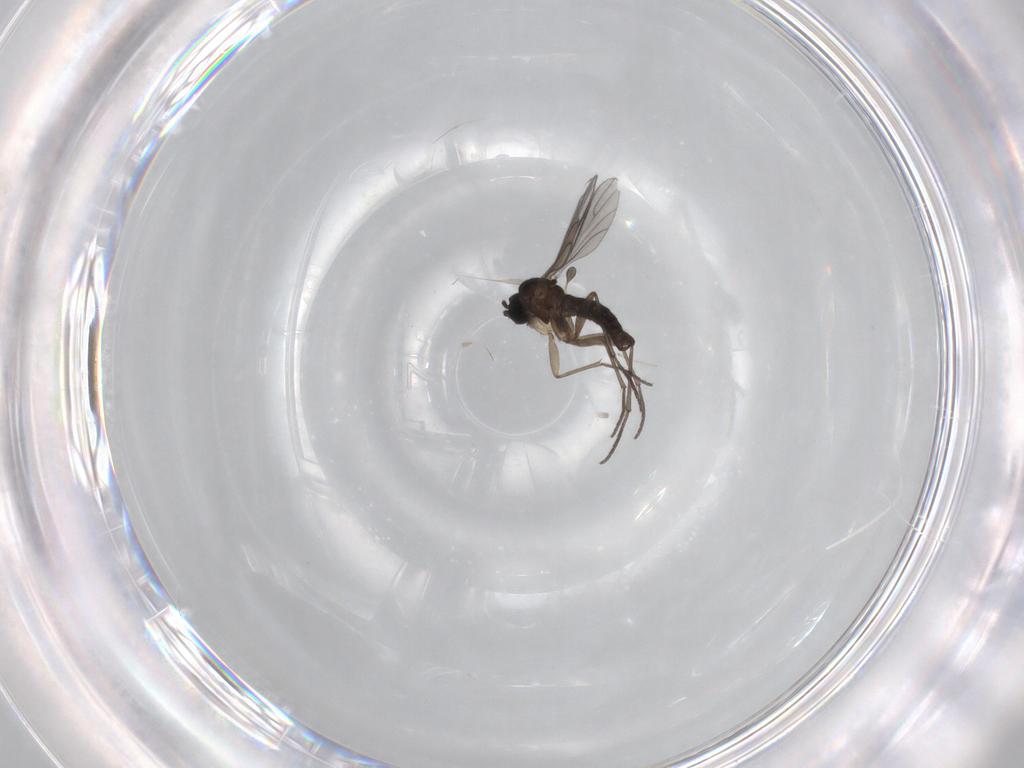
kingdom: Animalia
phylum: Arthropoda
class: Insecta
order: Diptera
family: Sciaridae
